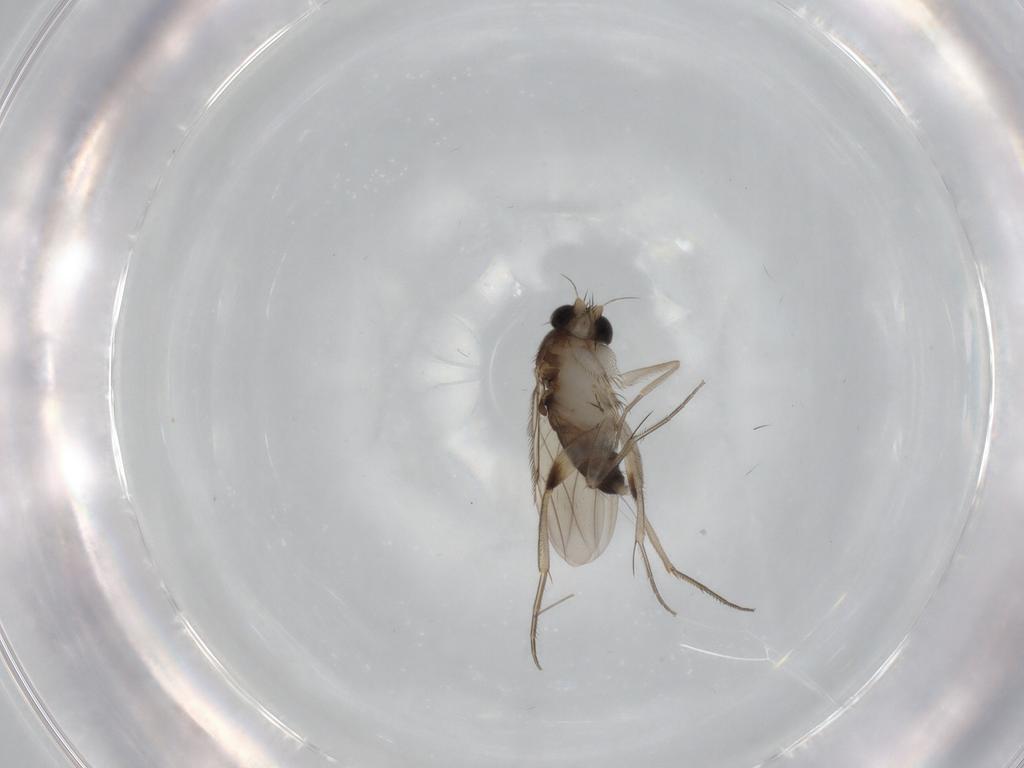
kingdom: Animalia
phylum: Arthropoda
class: Insecta
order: Diptera
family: Phoridae
